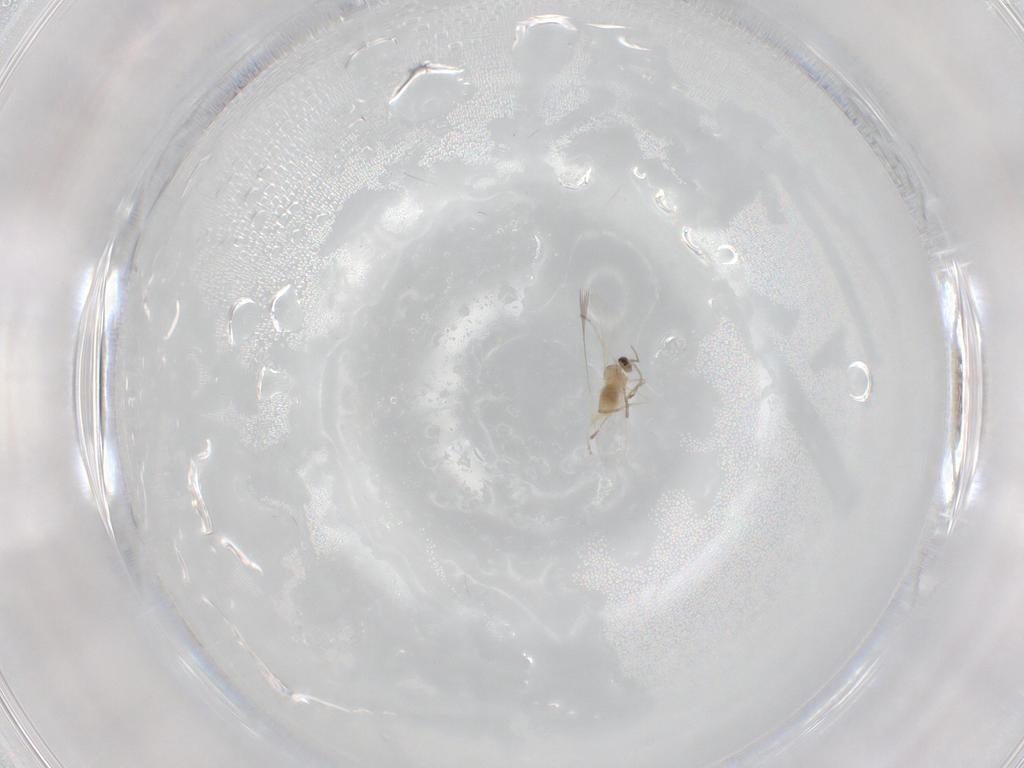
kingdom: Animalia
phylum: Arthropoda
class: Insecta
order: Diptera
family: Cecidomyiidae
